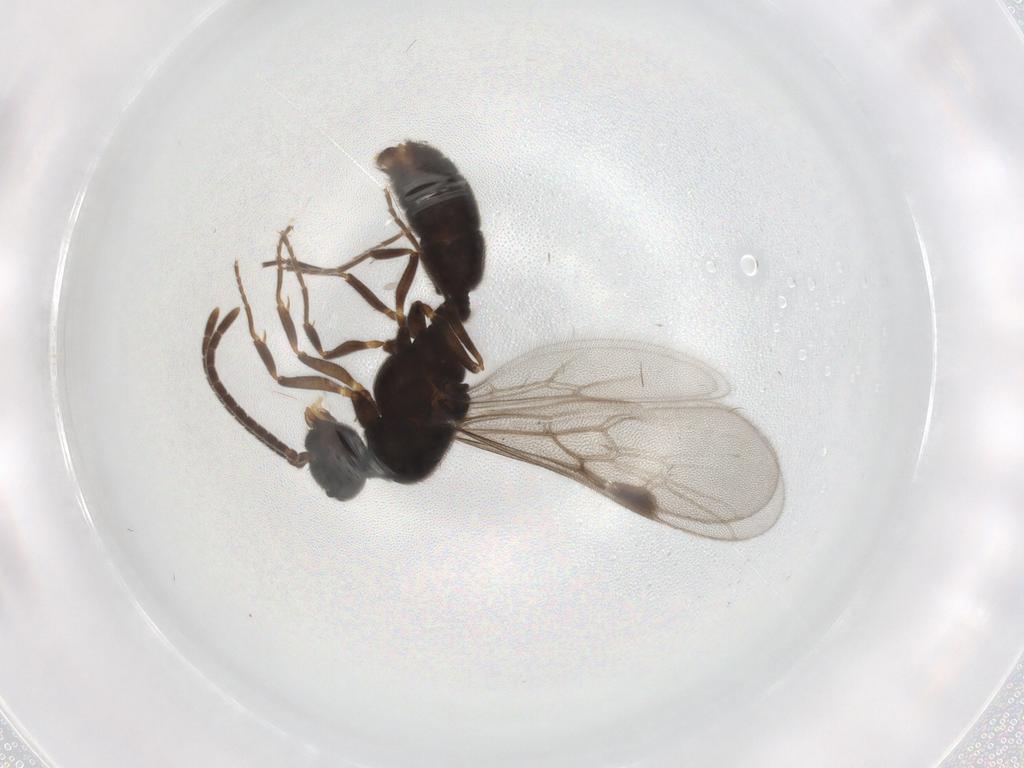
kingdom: Animalia
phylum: Arthropoda
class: Insecta
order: Hymenoptera
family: Formicidae
